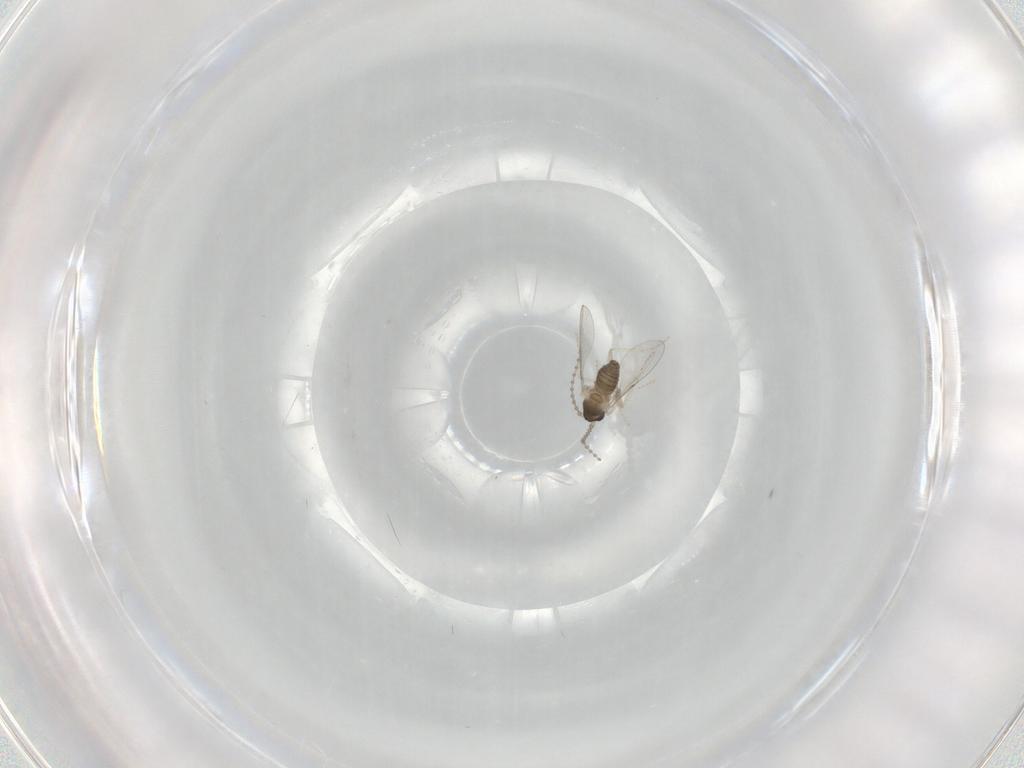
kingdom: Animalia
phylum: Arthropoda
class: Insecta
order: Diptera
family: Cecidomyiidae
